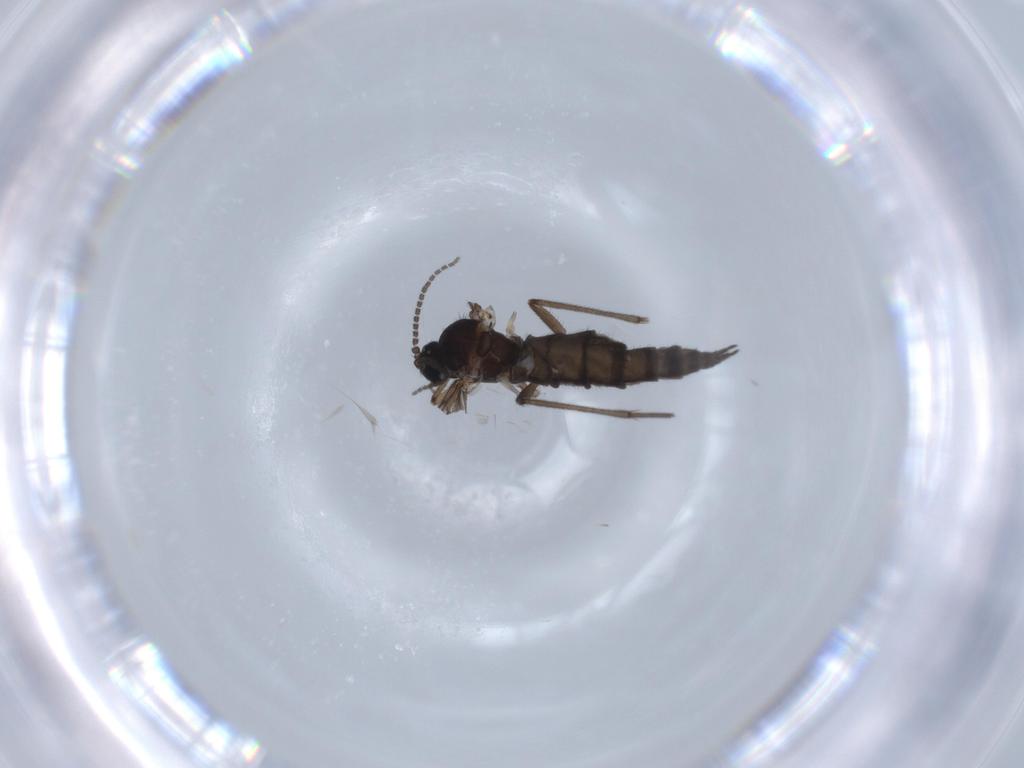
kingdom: Animalia
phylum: Arthropoda
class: Insecta
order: Diptera
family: Sciaridae
